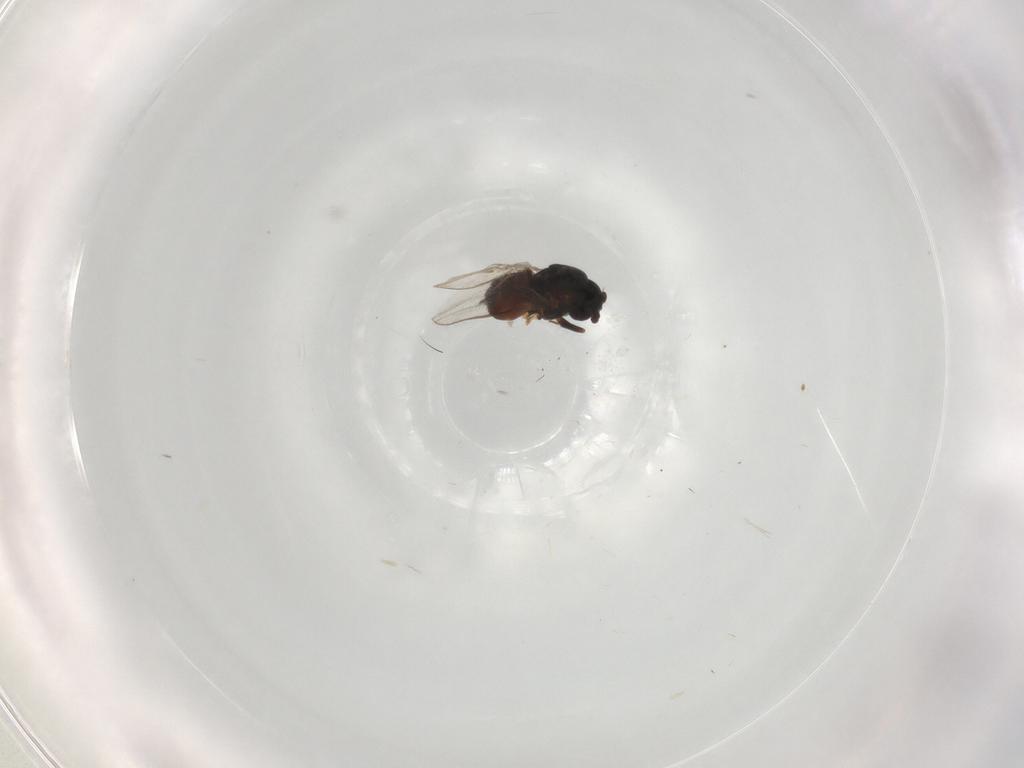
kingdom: Animalia
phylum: Arthropoda
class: Insecta
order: Diptera
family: Sphaeroceridae
